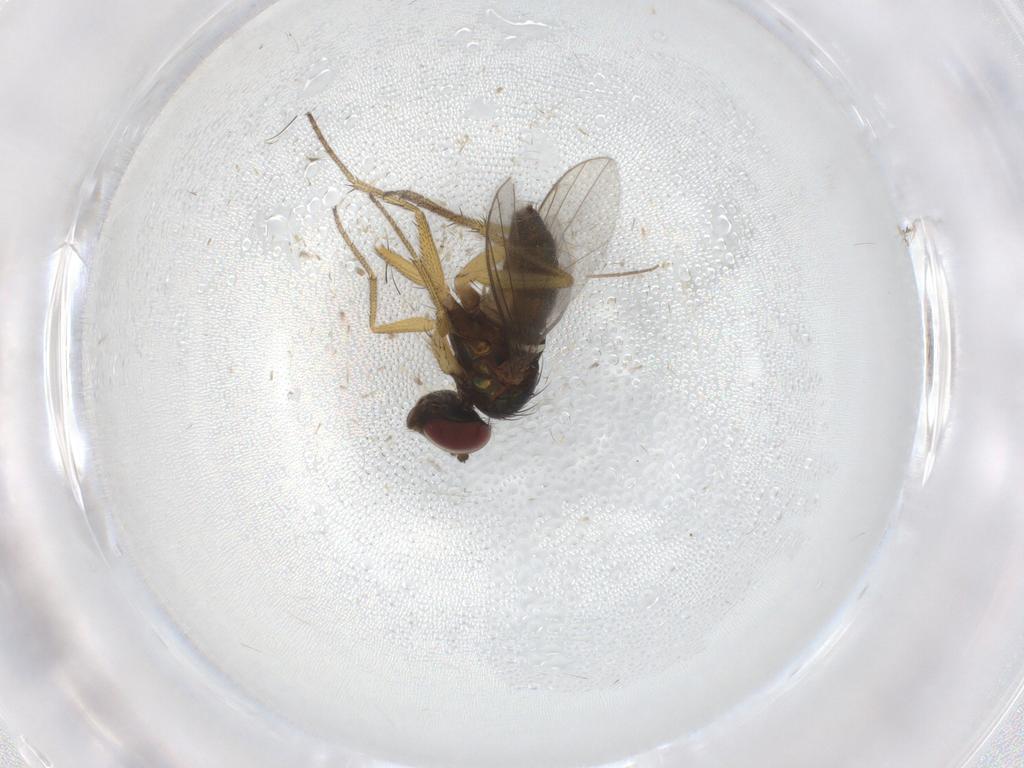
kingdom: Animalia
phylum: Arthropoda
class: Insecta
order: Diptera
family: Dolichopodidae
